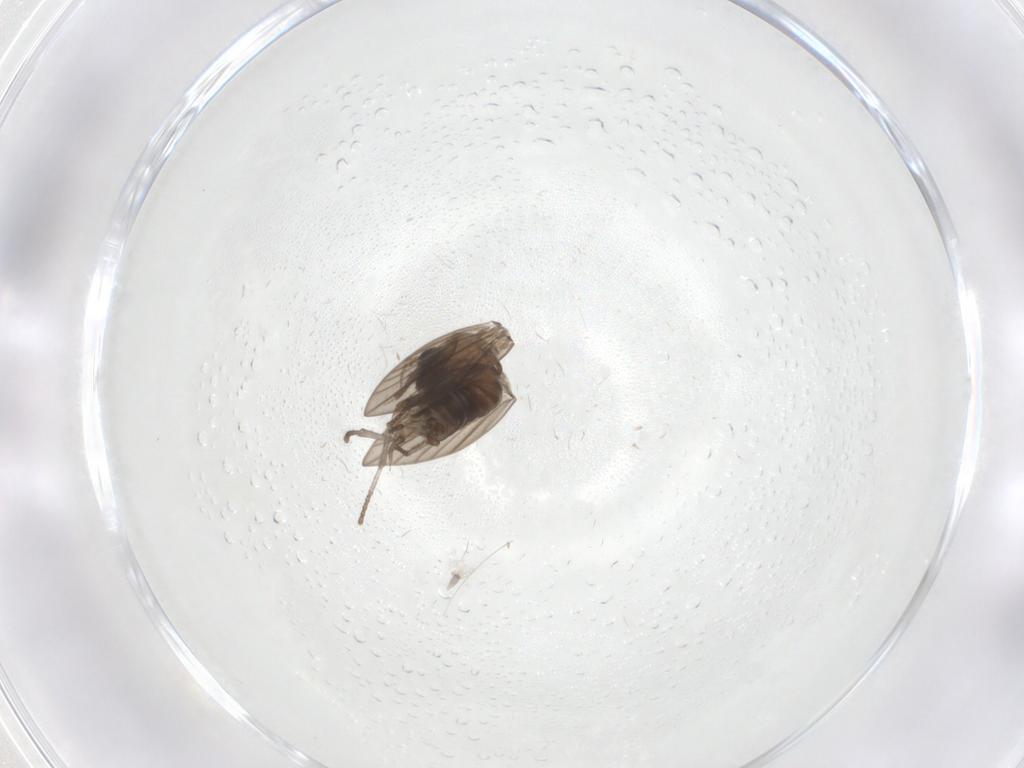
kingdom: Animalia
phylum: Arthropoda
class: Insecta
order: Diptera
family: Psychodidae
